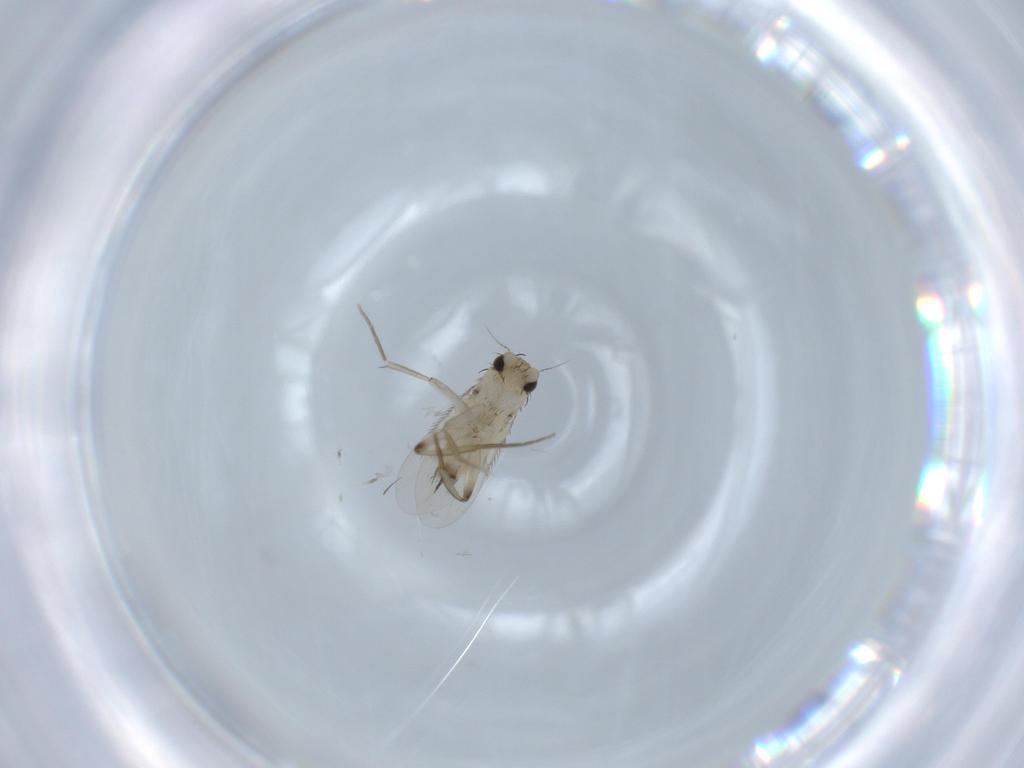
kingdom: Animalia
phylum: Arthropoda
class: Insecta
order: Diptera
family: Phoridae
